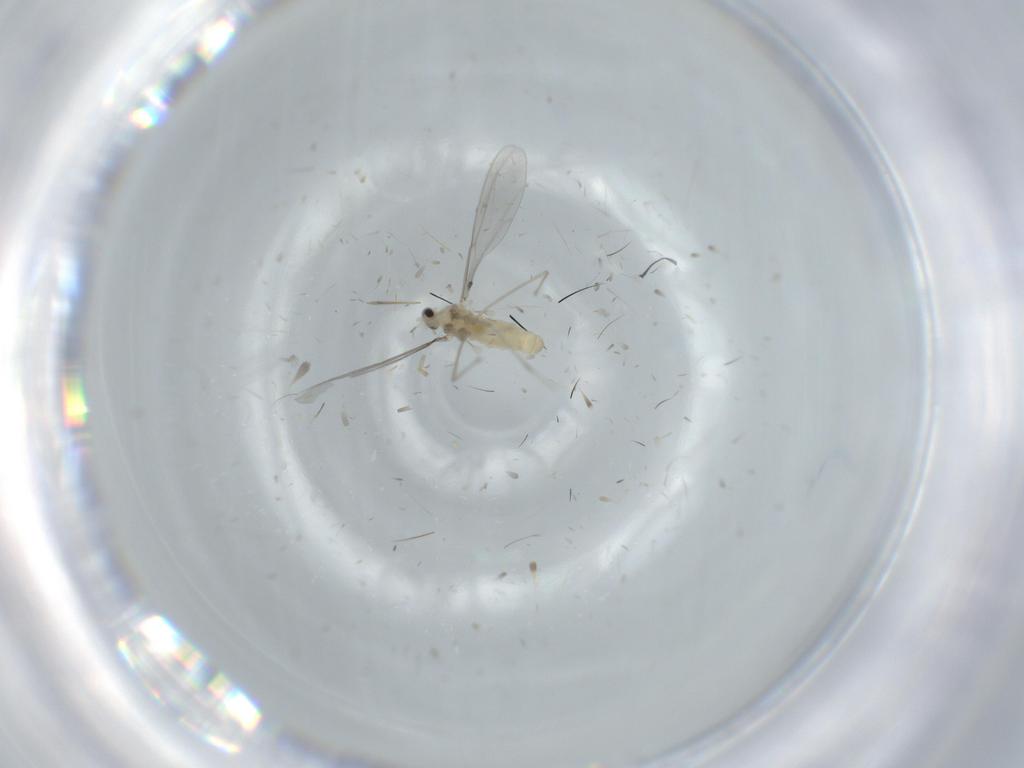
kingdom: Animalia
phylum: Arthropoda
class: Insecta
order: Diptera
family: Cecidomyiidae
